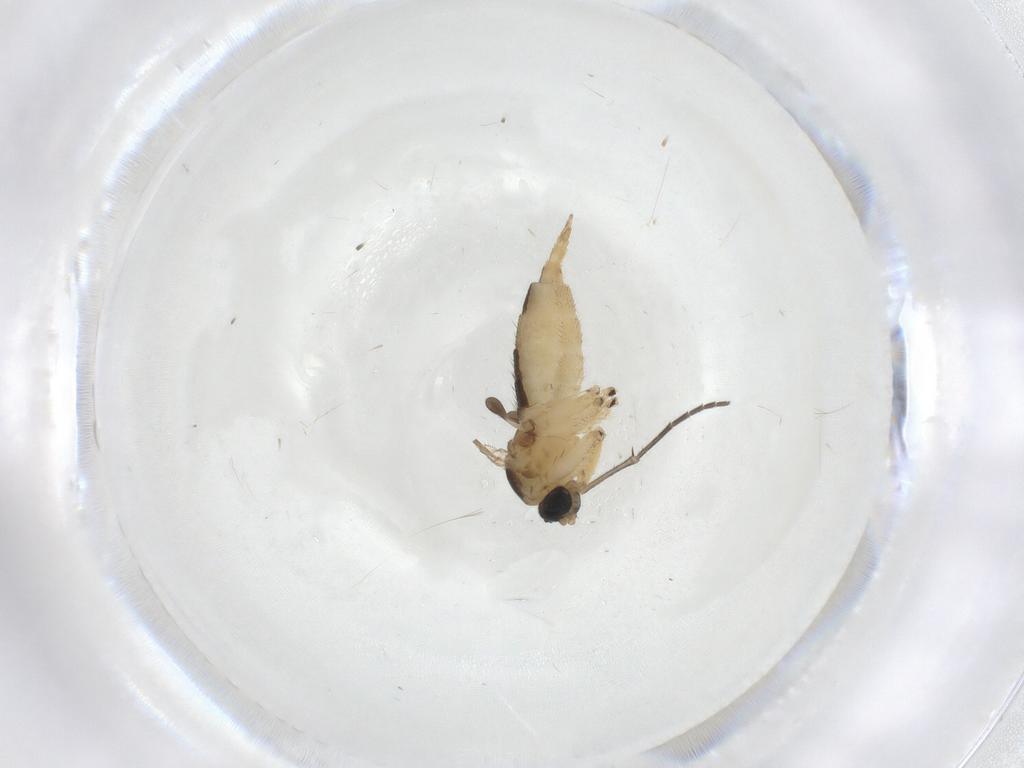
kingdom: Animalia
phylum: Arthropoda
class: Insecta
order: Diptera
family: Sciaridae
